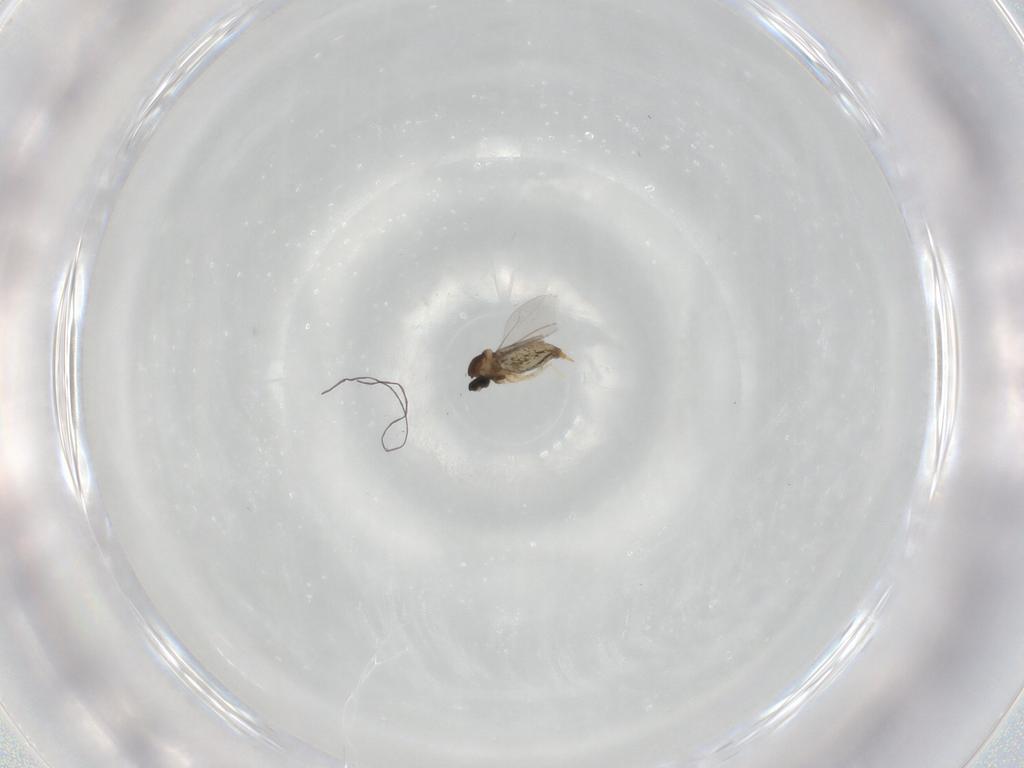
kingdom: Animalia
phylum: Arthropoda
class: Insecta
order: Diptera
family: Cecidomyiidae
